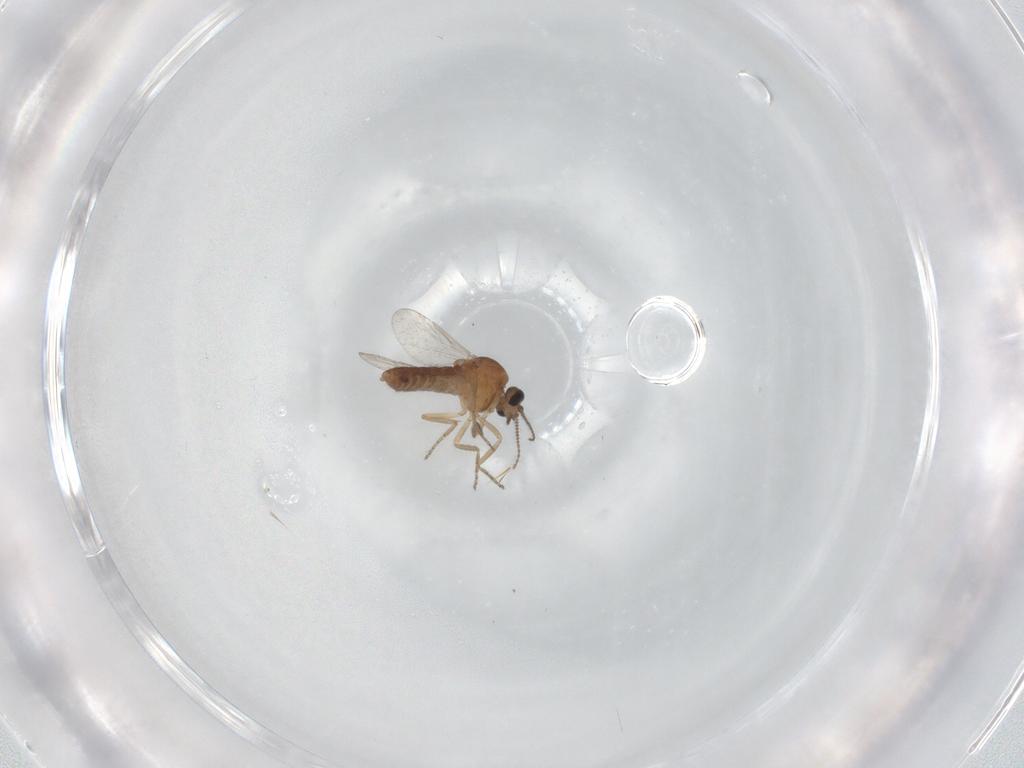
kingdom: Animalia
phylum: Arthropoda
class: Insecta
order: Diptera
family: Ceratopogonidae
